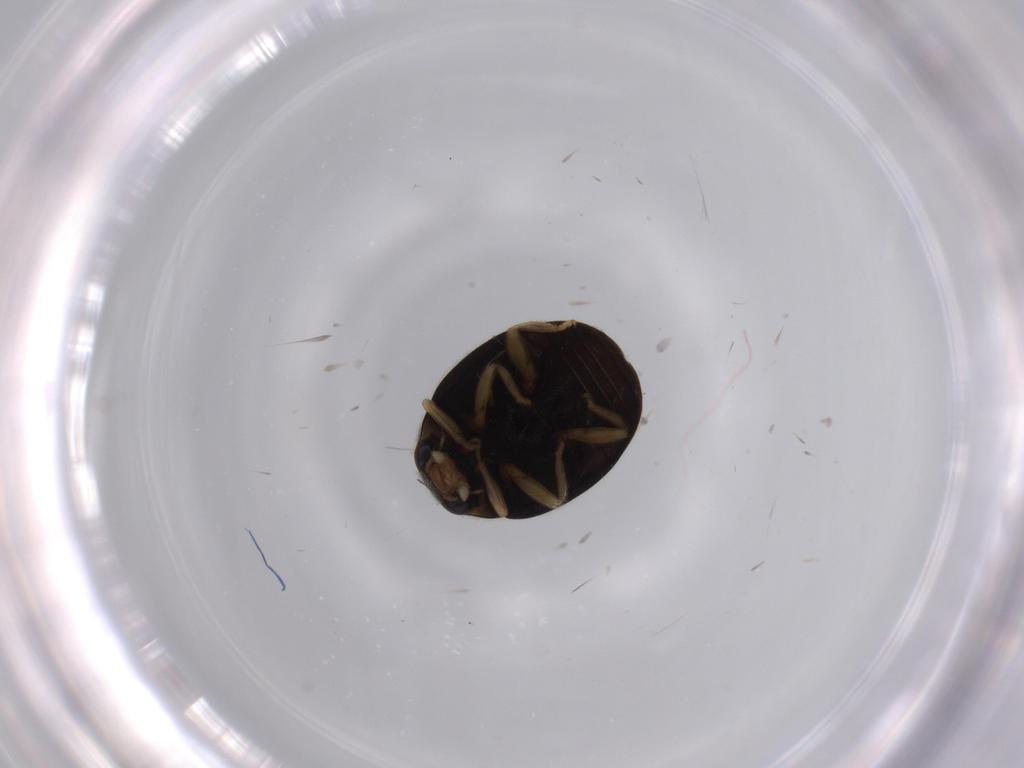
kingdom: Animalia
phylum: Arthropoda
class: Insecta
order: Coleoptera
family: Coccinellidae
